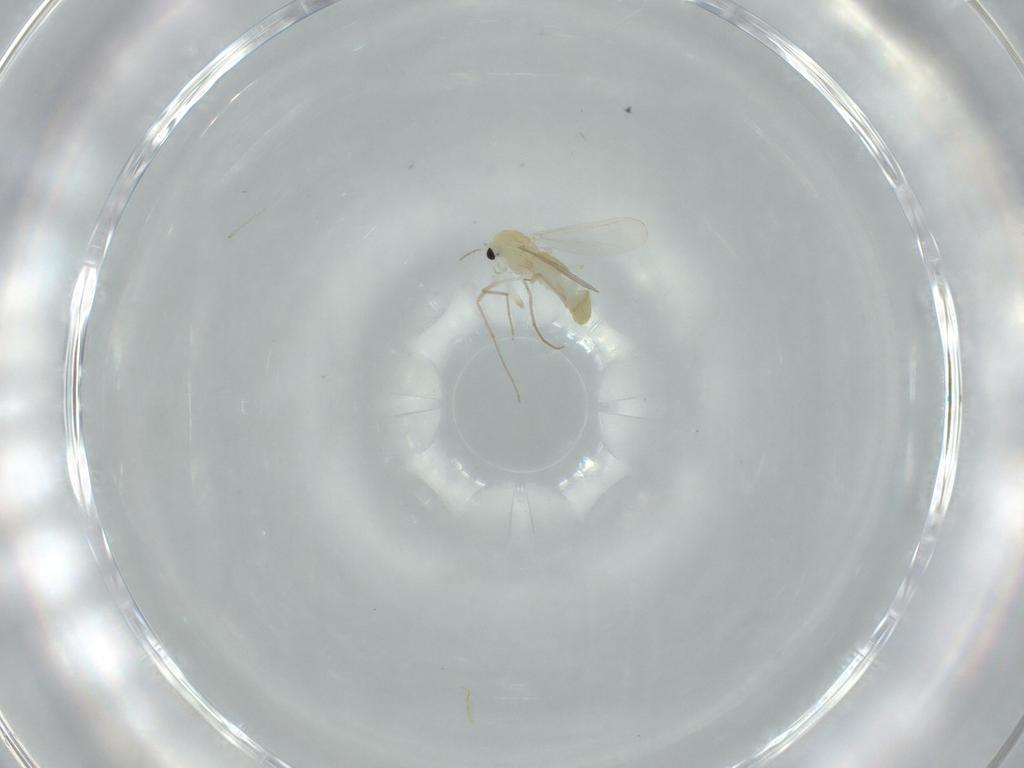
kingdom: Animalia
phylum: Arthropoda
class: Insecta
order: Diptera
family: Chironomidae
